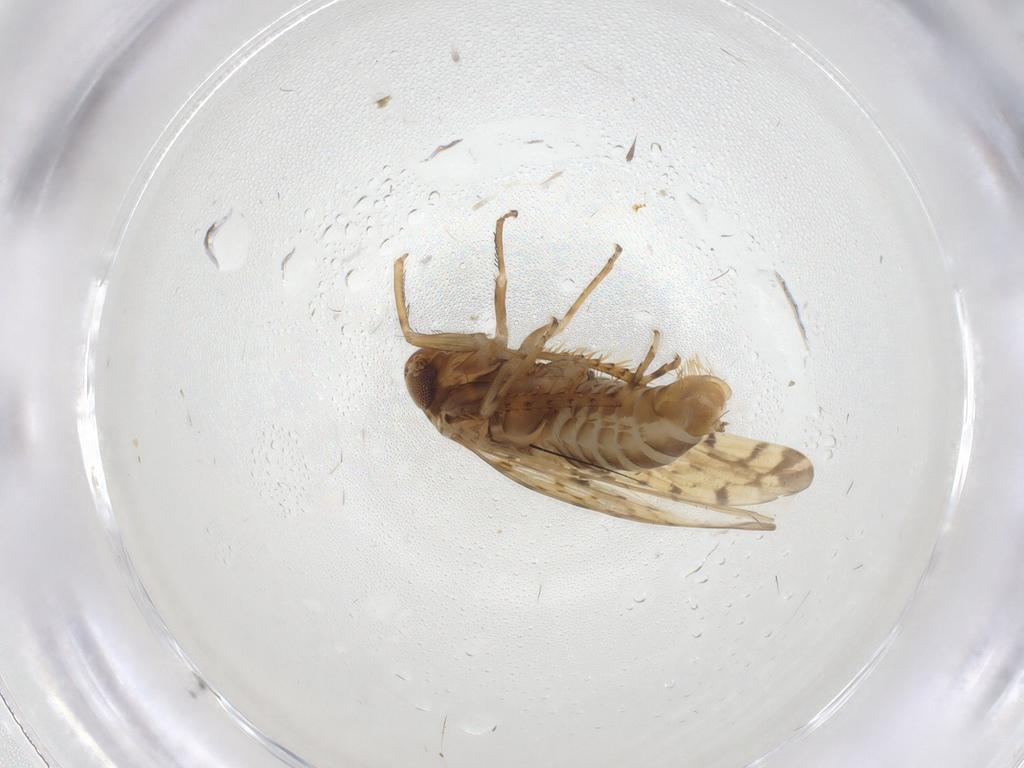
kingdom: Animalia
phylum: Arthropoda
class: Insecta
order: Hemiptera
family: Cicadellidae
